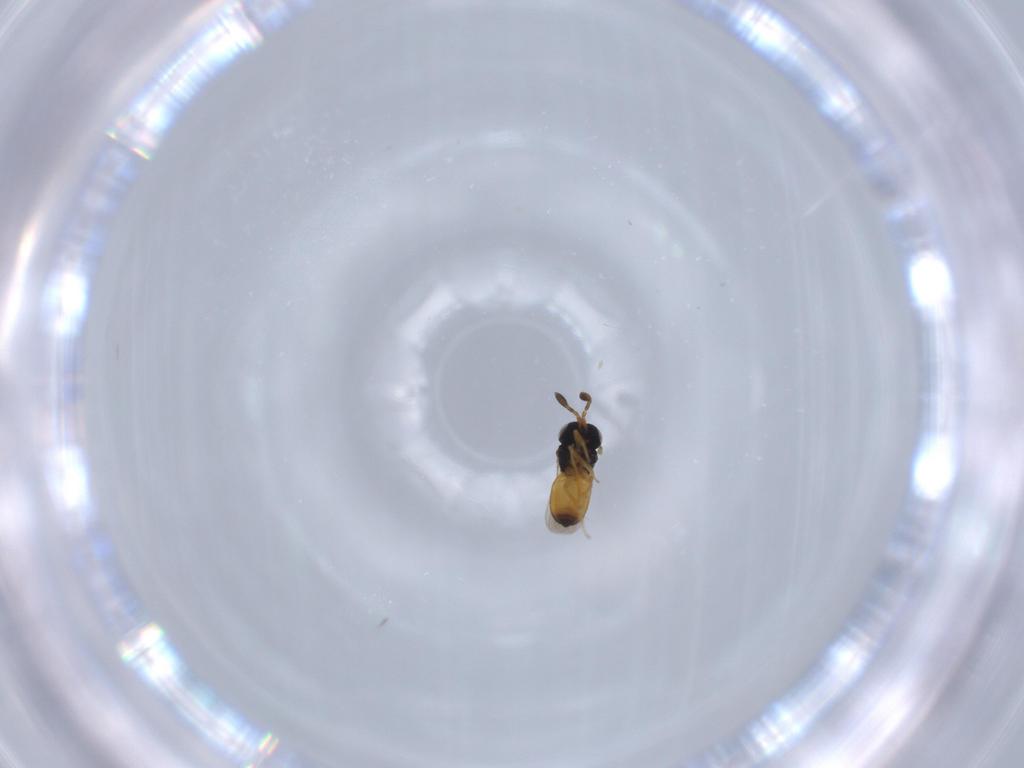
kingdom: Animalia
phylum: Arthropoda
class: Insecta
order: Hymenoptera
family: Scelionidae
